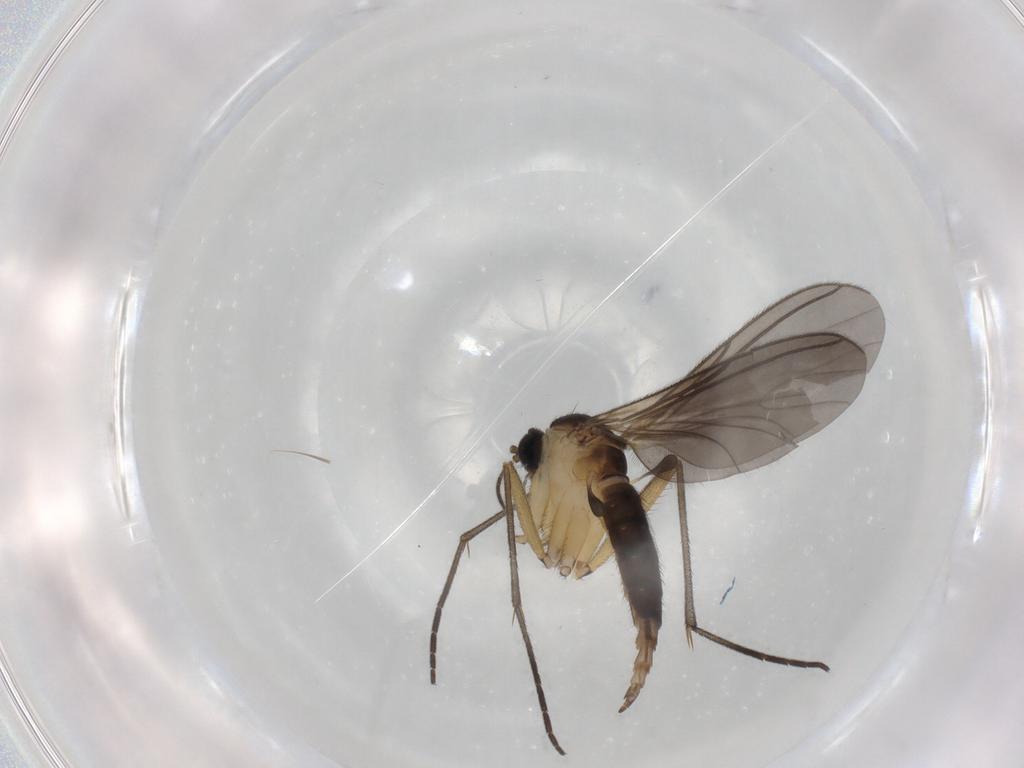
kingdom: Animalia
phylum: Arthropoda
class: Insecta
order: Diptera
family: Sciaridae
